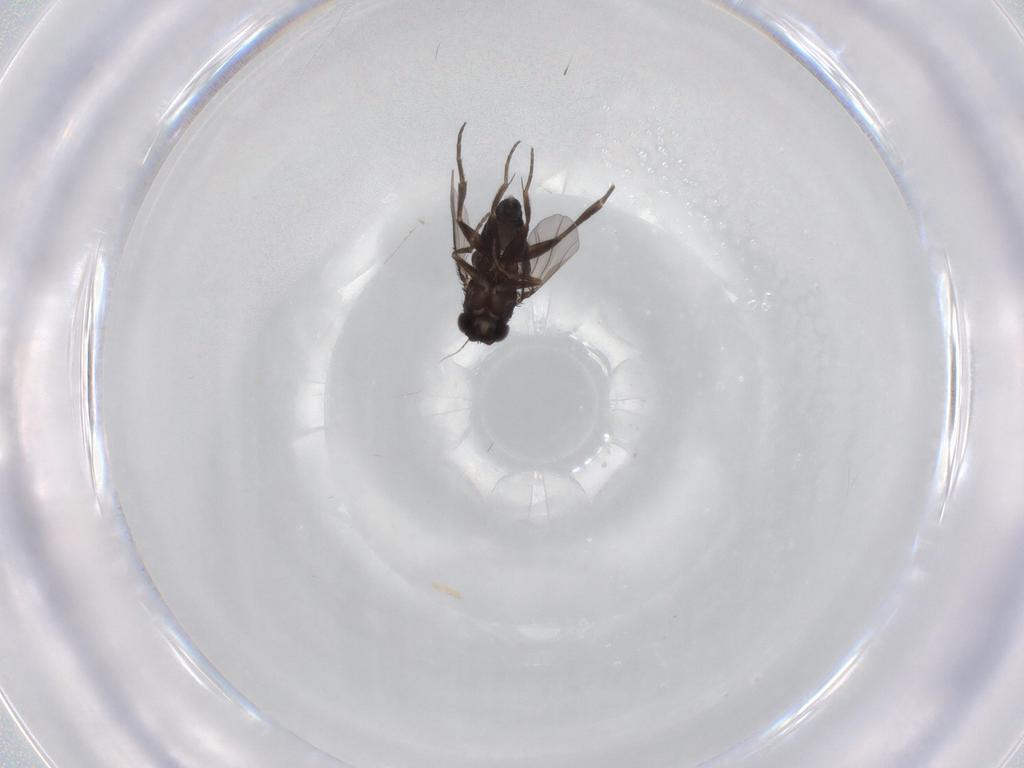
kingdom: Animalia
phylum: Arthropoda
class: Insecta
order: Diptera
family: Phoridae
